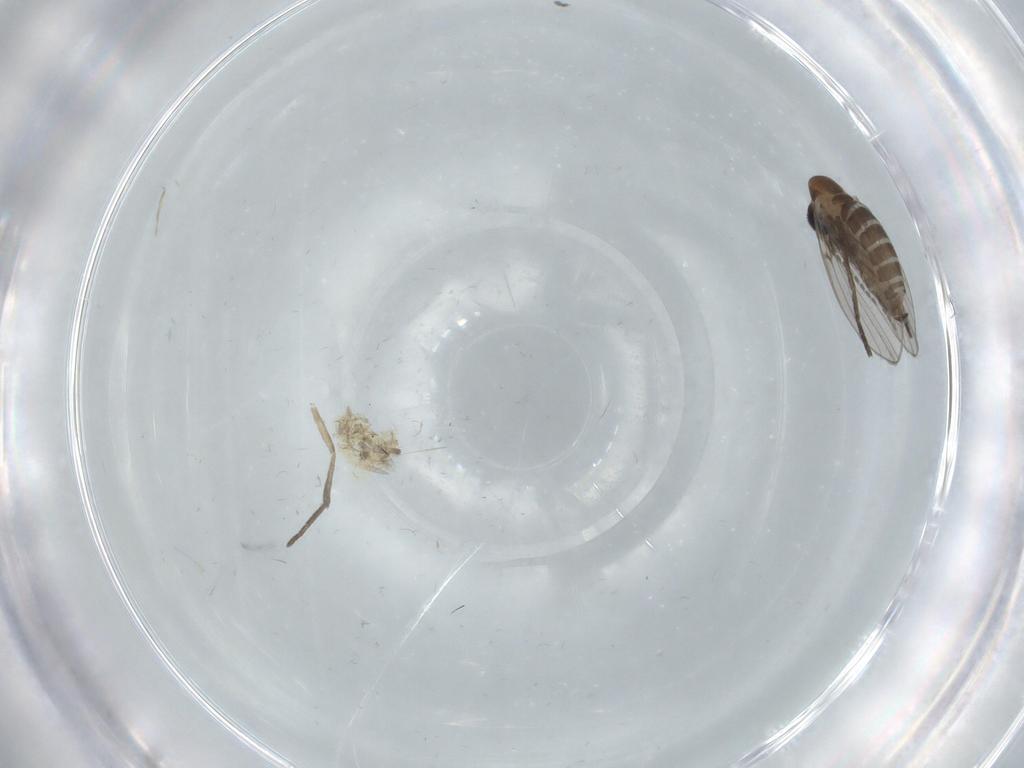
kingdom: Animalia
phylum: Arthropoda
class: Insecta
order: Diptera
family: Psychodidae
